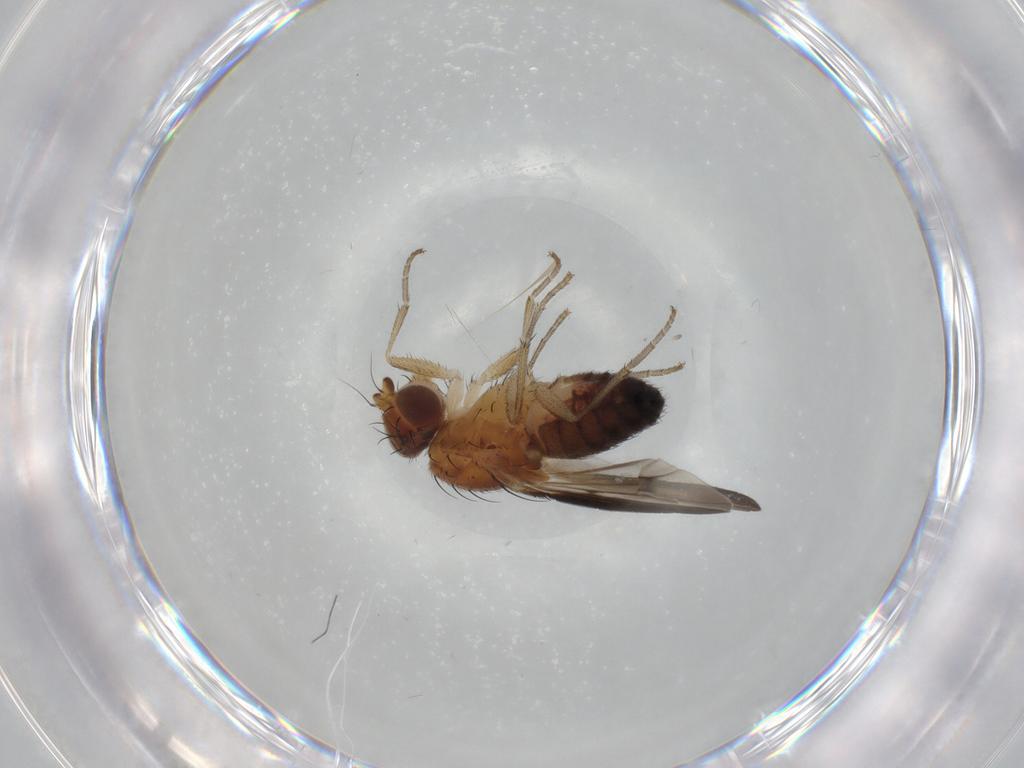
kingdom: Animalia
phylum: Arthropoda
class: Insecta
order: Diptera
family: Heleomyzidae
